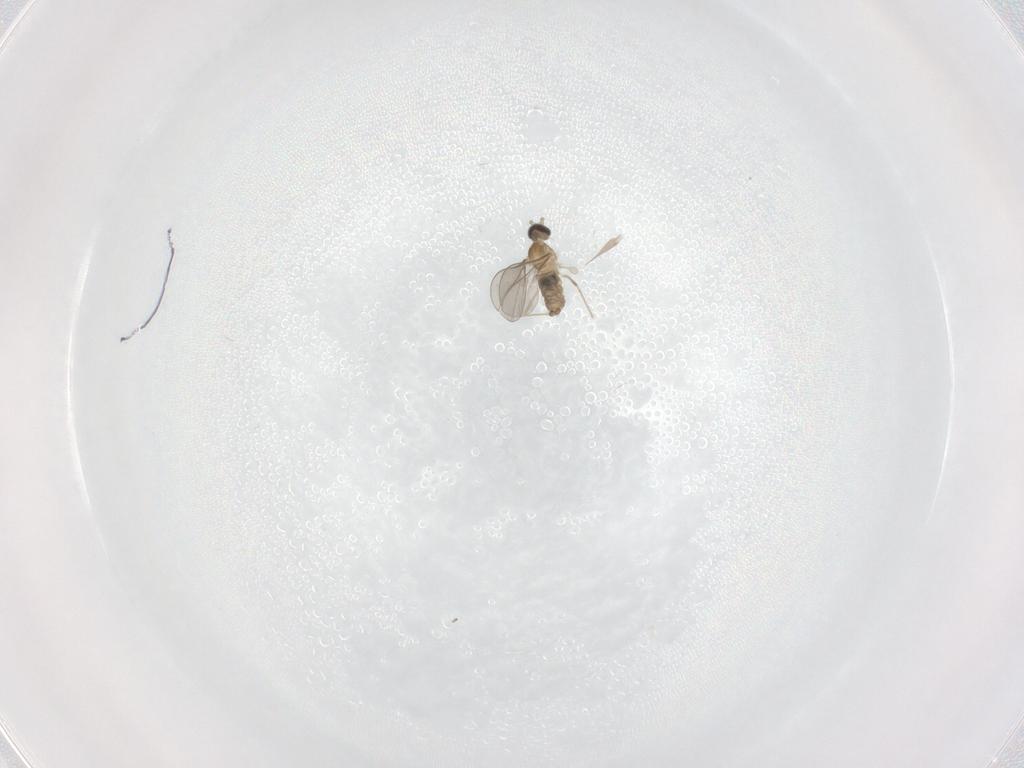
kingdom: Animalia
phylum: Arthropoda
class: Insecta
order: Diptera
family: Cecidomyiidae
